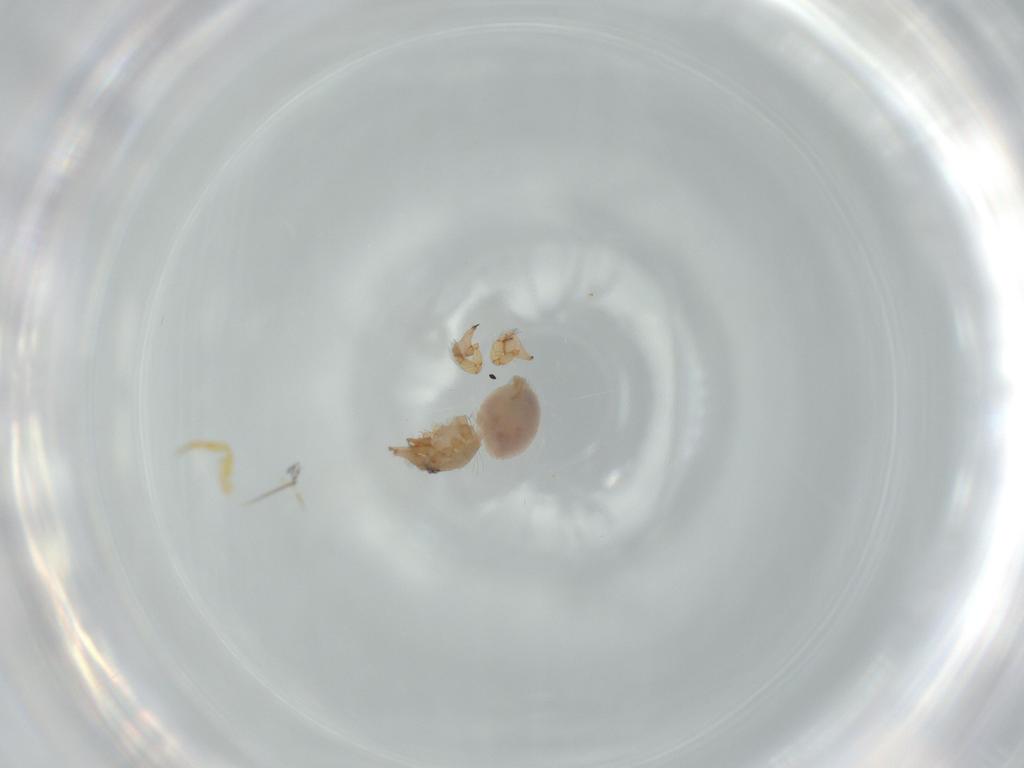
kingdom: Animalia
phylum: Arthropoda
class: Arachnida
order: Araneae
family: Oonopidae
